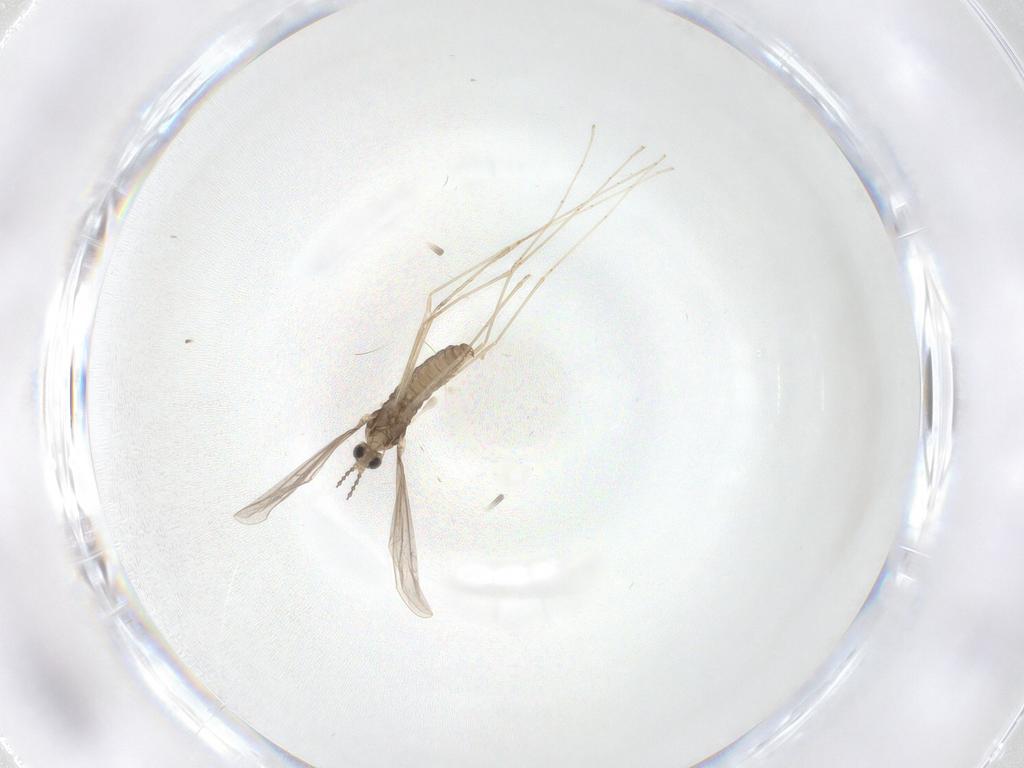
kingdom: Animalia
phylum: Arthropoda
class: Insecta
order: Diptera
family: Cecidomyiidae
